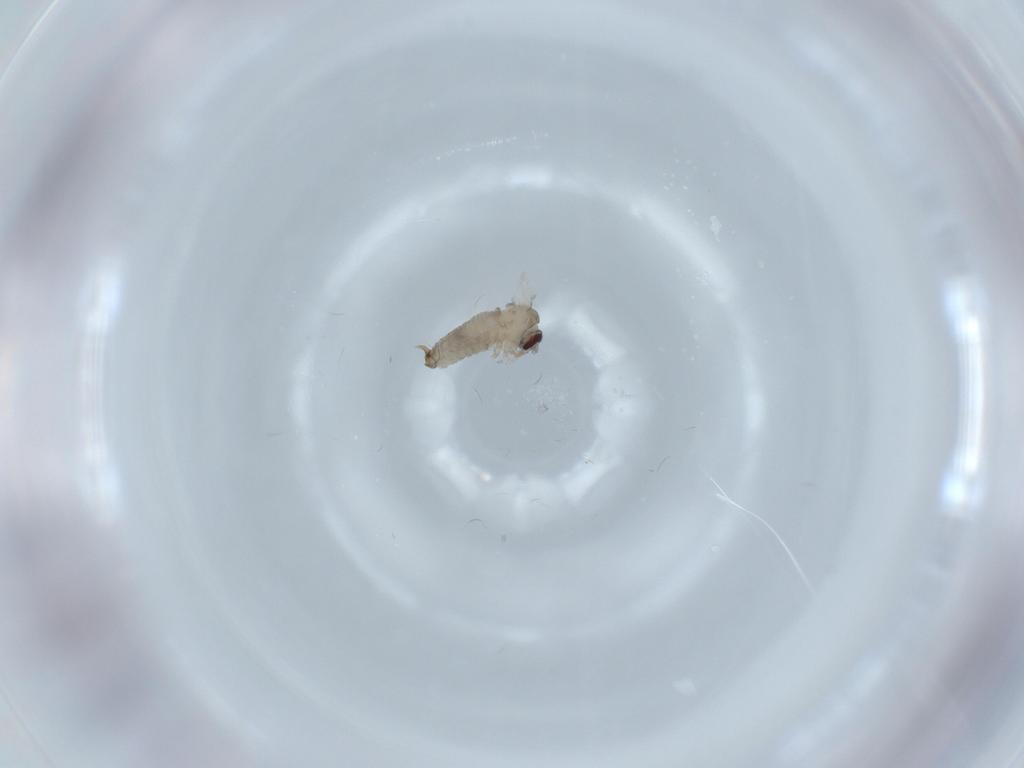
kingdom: Animalia
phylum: Arthropoda
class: Insecta
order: Diptera
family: Psychodidae
